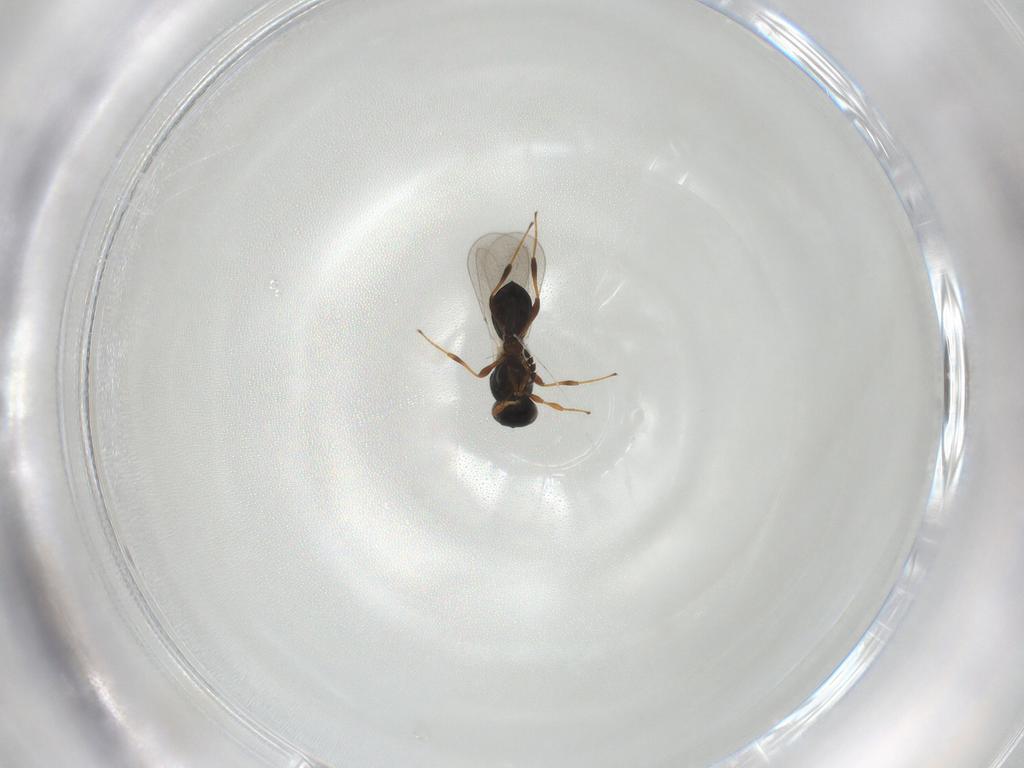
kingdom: Animalia
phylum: Arthropoda
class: Insecta
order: Hymenoptera
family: Platygastridae
